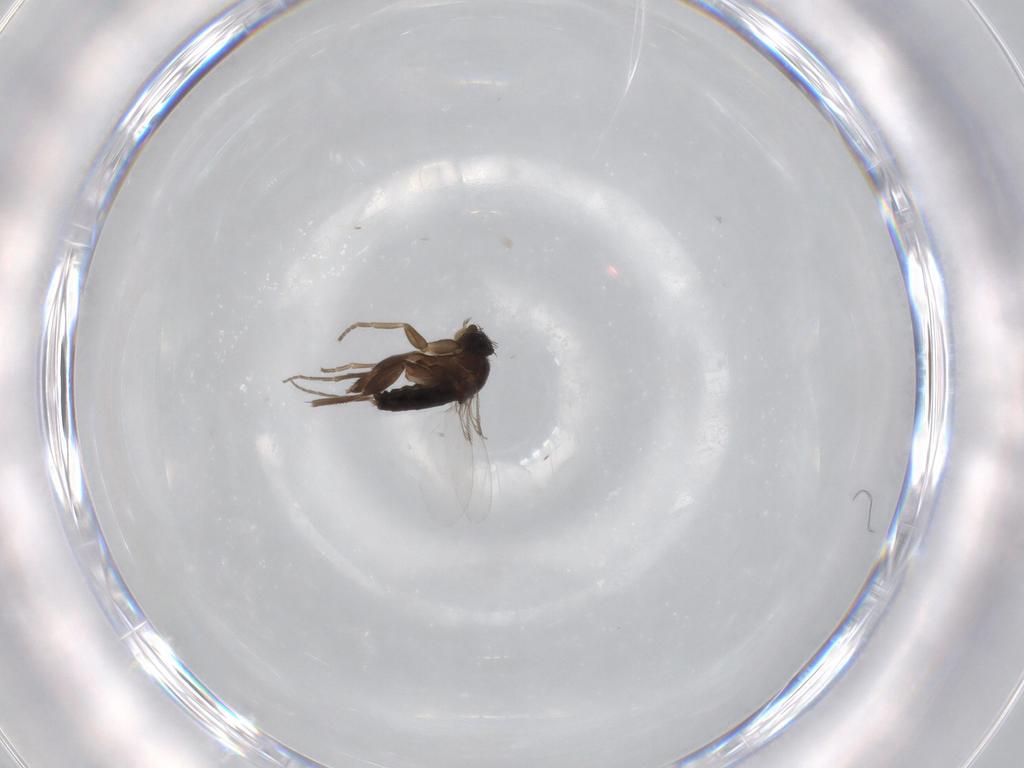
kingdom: Animalia
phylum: Arthropoda
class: Insecta
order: Diptera
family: Phoridae
